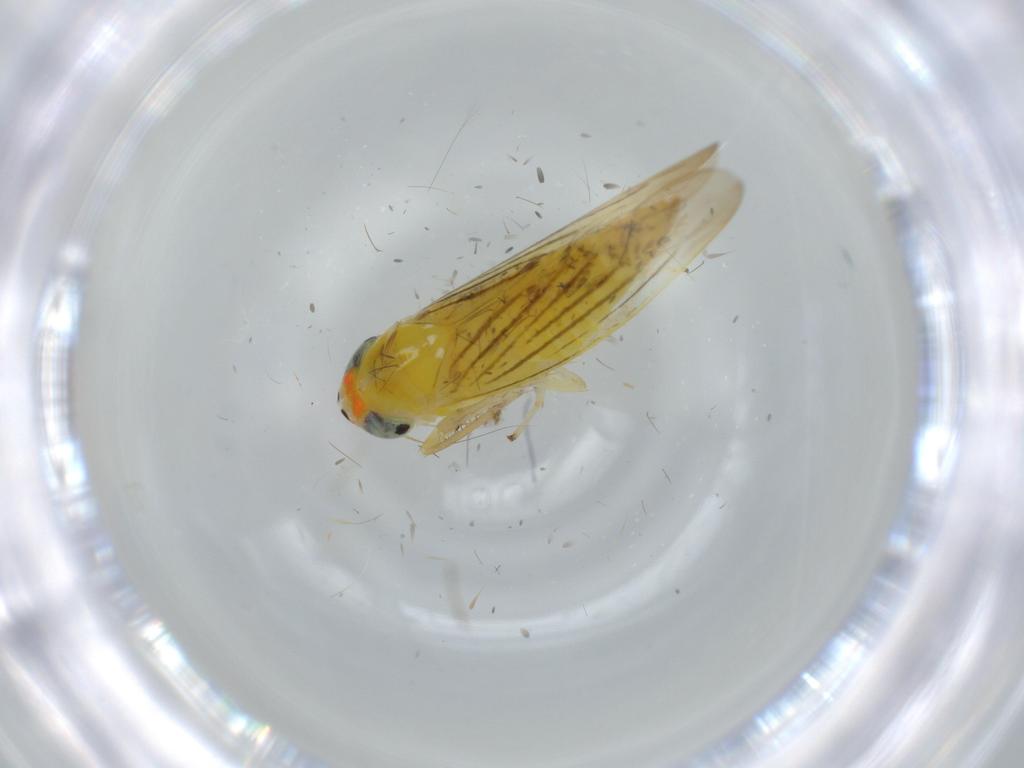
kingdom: Animalia
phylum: Arthropoda
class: Insecta
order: Hemiptera
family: Cicadellidae
